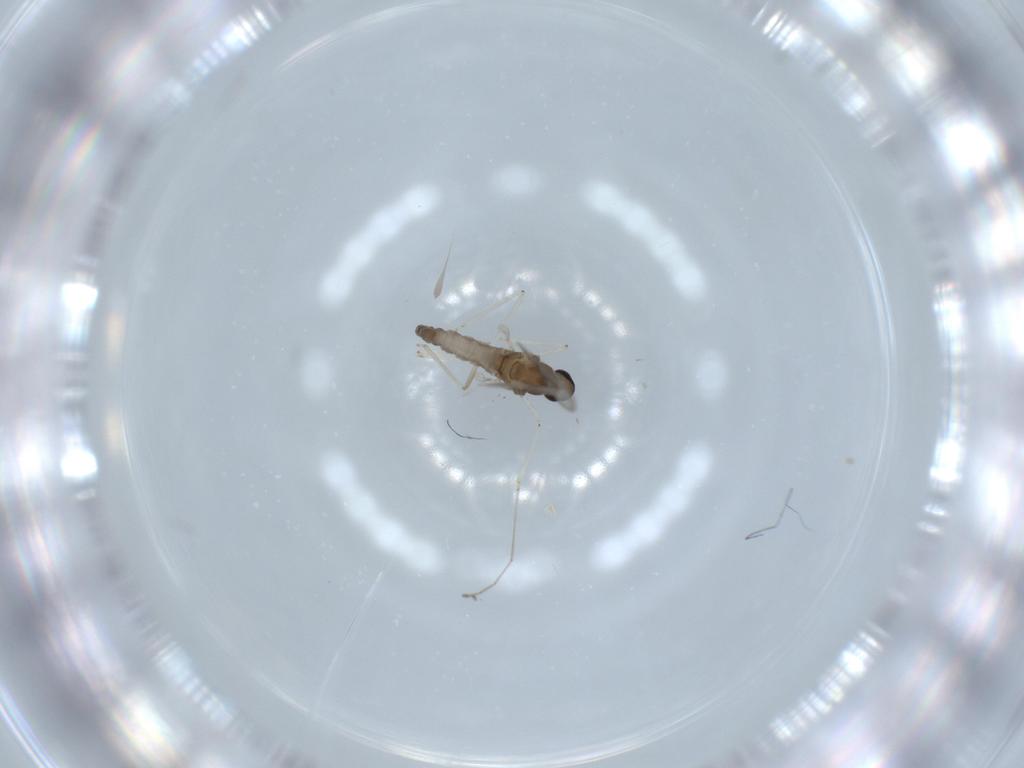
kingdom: Animalia
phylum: Arthropoda
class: Insecta
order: Diptera
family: Cecidomyiidae
